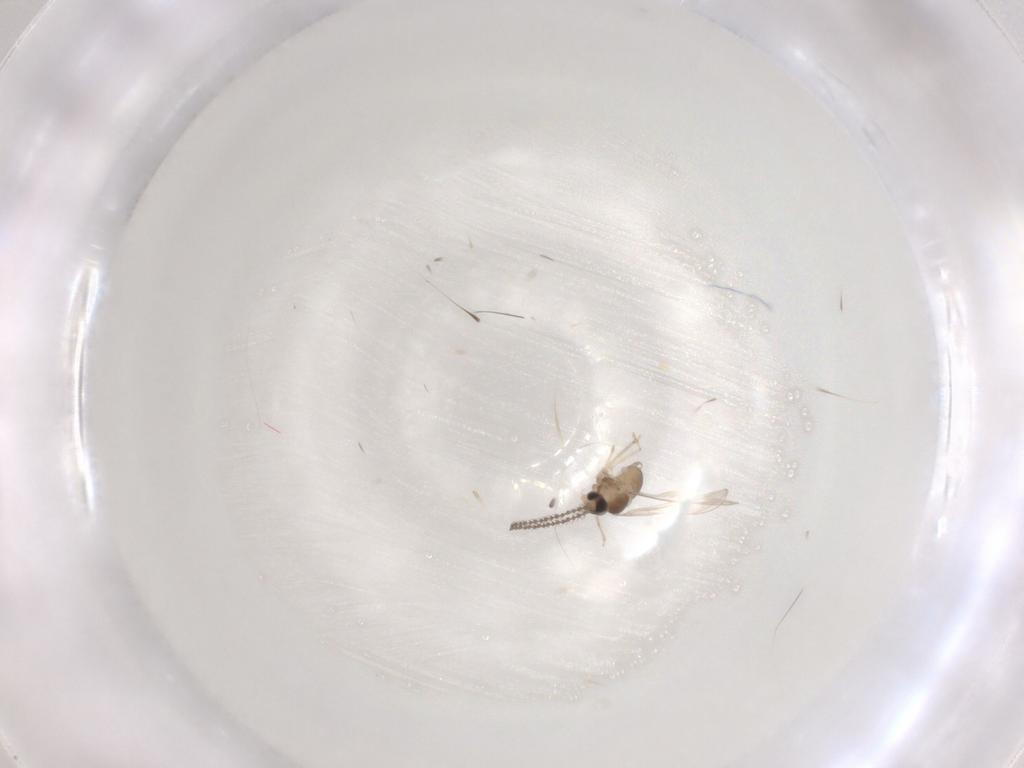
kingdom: Animalia
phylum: Arthropoda
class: Insecta
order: Diptera
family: Cecidomyiidae
